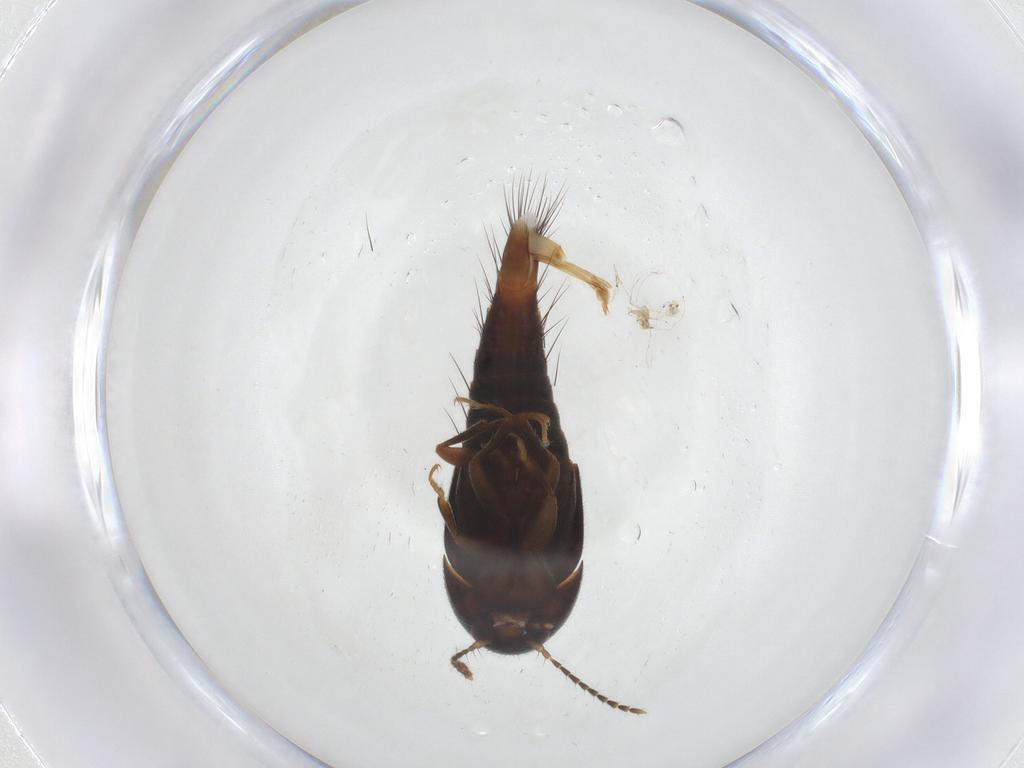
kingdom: Animalia
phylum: Arthropoda
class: Insecta
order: Coleoptera
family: Staphylinidae
